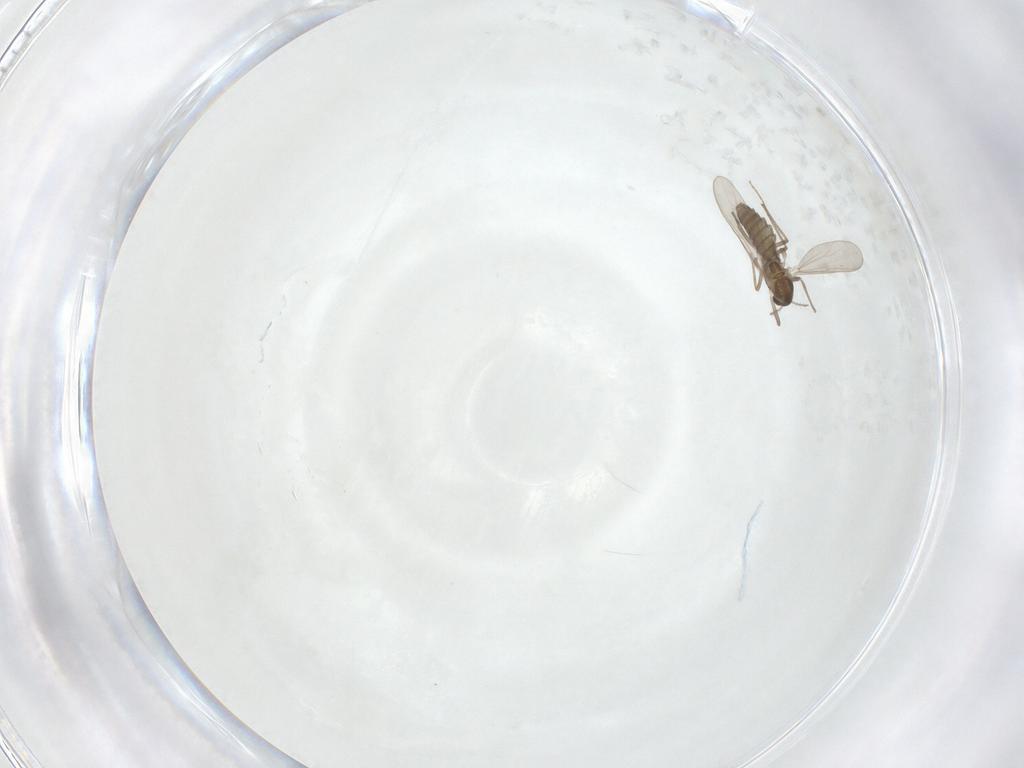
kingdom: Animalia
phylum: Arthropoda
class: Insecta
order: Diptera
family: Chironomidae
